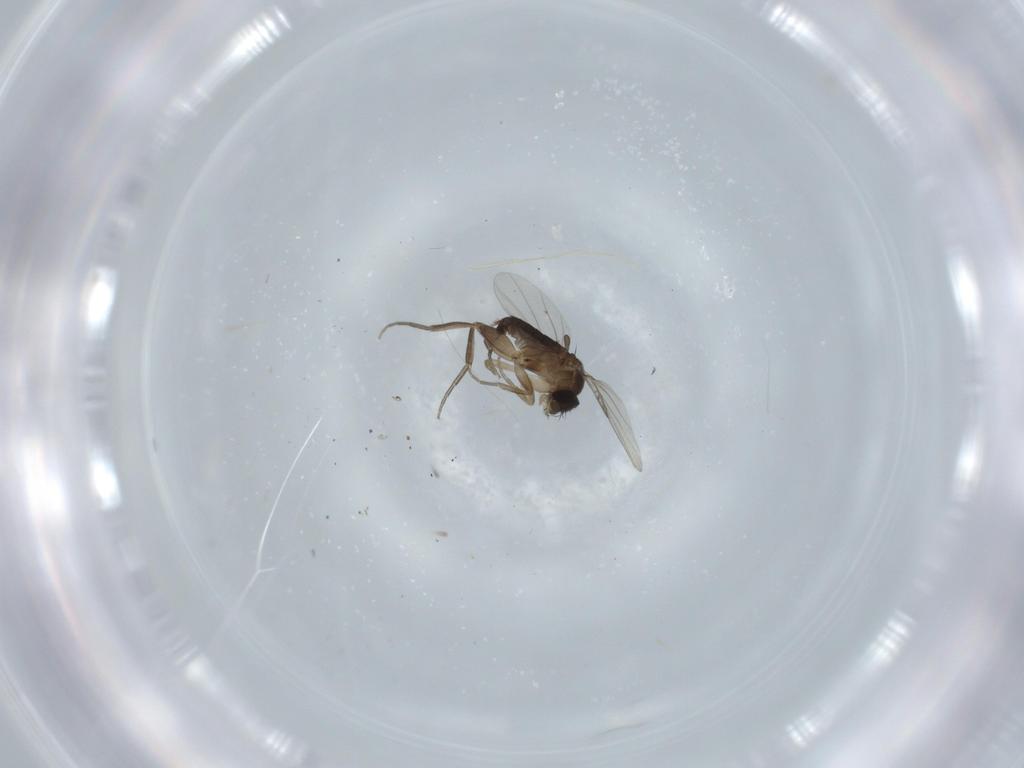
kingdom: Animalia
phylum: Arthropoda
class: Insecta
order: Diptera
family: Phoridae
